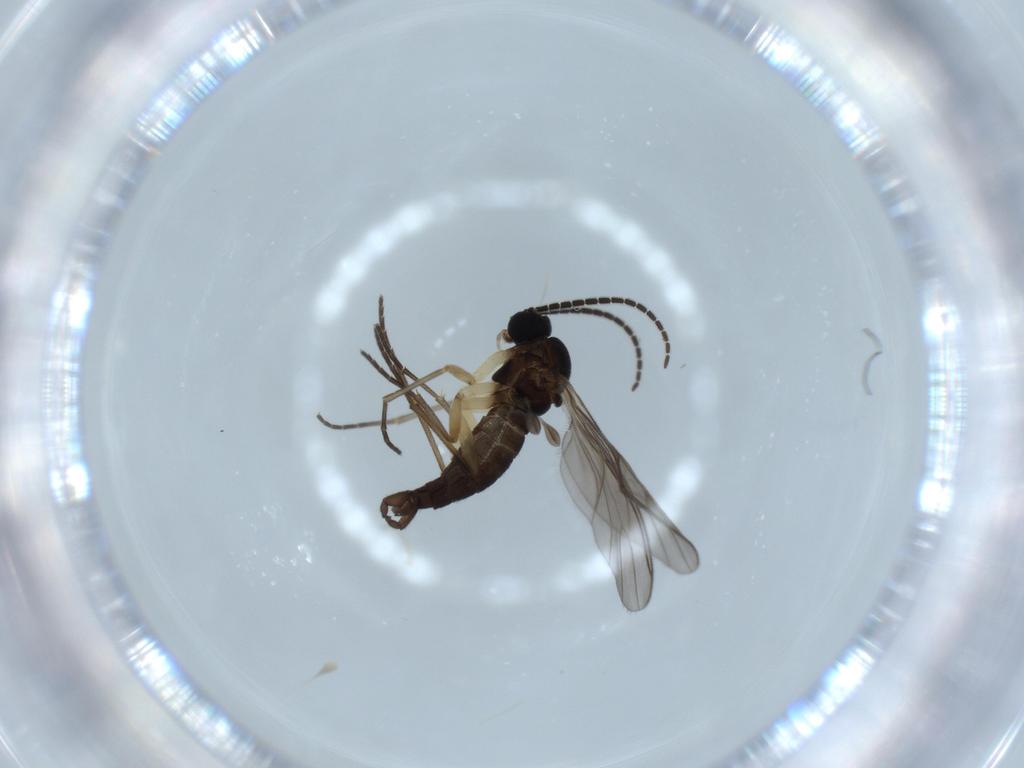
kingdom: Animalia
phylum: Arthropoda
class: Insecta
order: Diptera
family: Sciaridae
